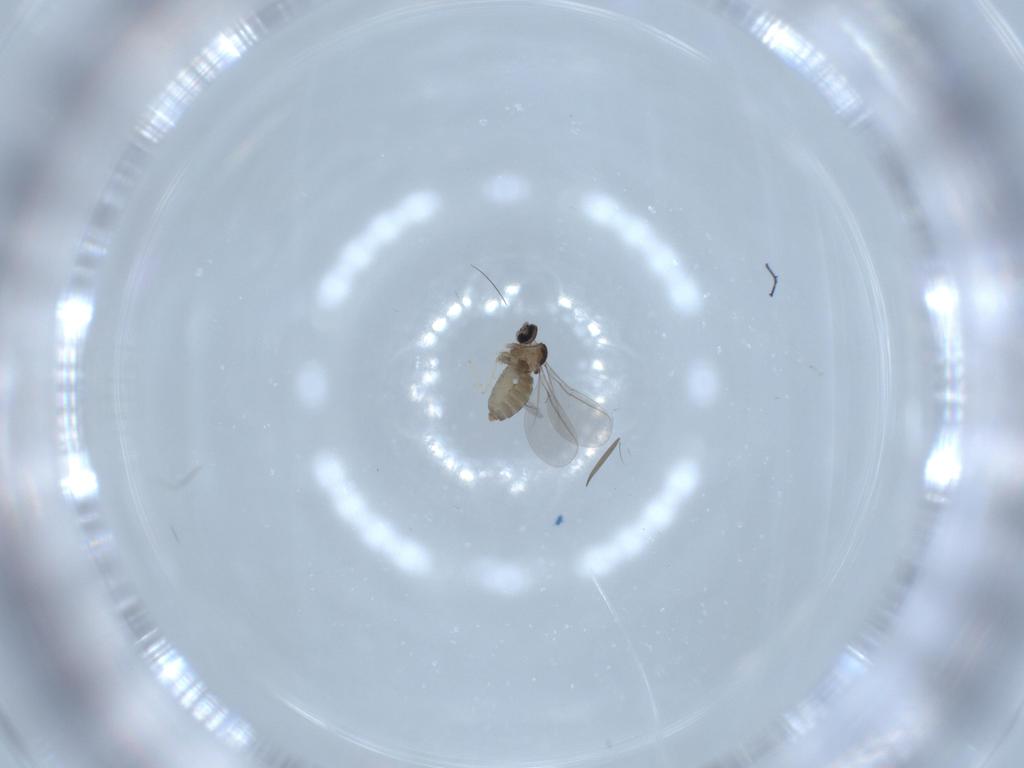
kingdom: Animalia
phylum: Arthropoda
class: Insecta
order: Diptera
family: Cecidomyiidae
